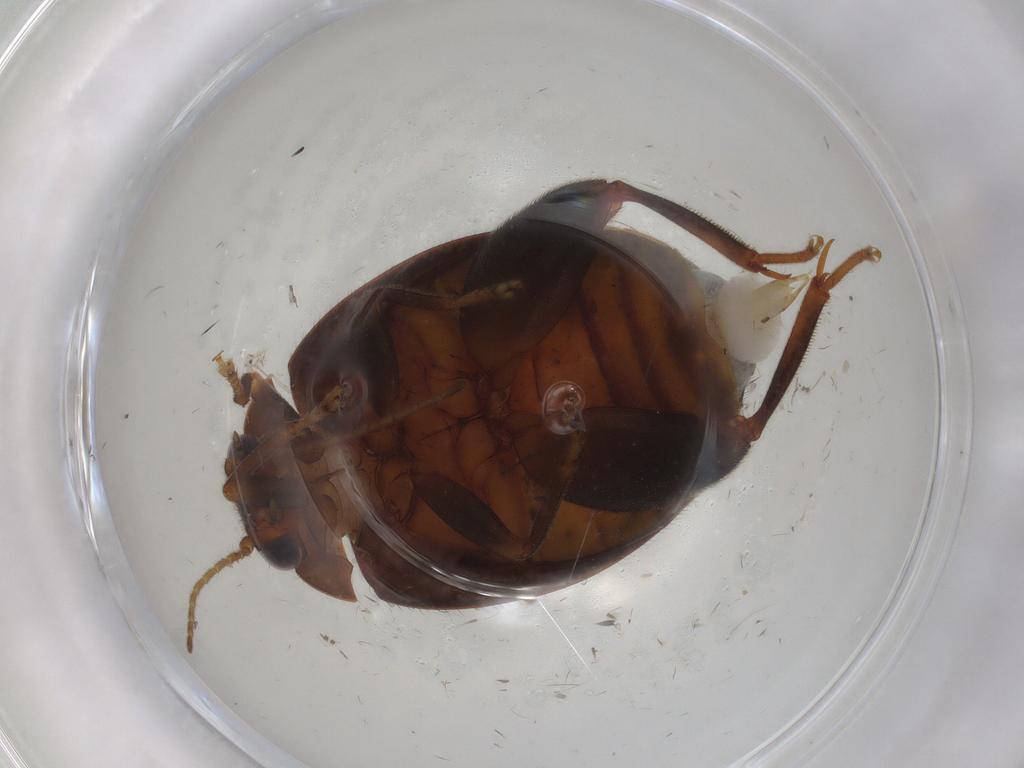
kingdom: Animalia
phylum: Arthropoda
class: Insecta
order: Coleoptera
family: Scirtidae
